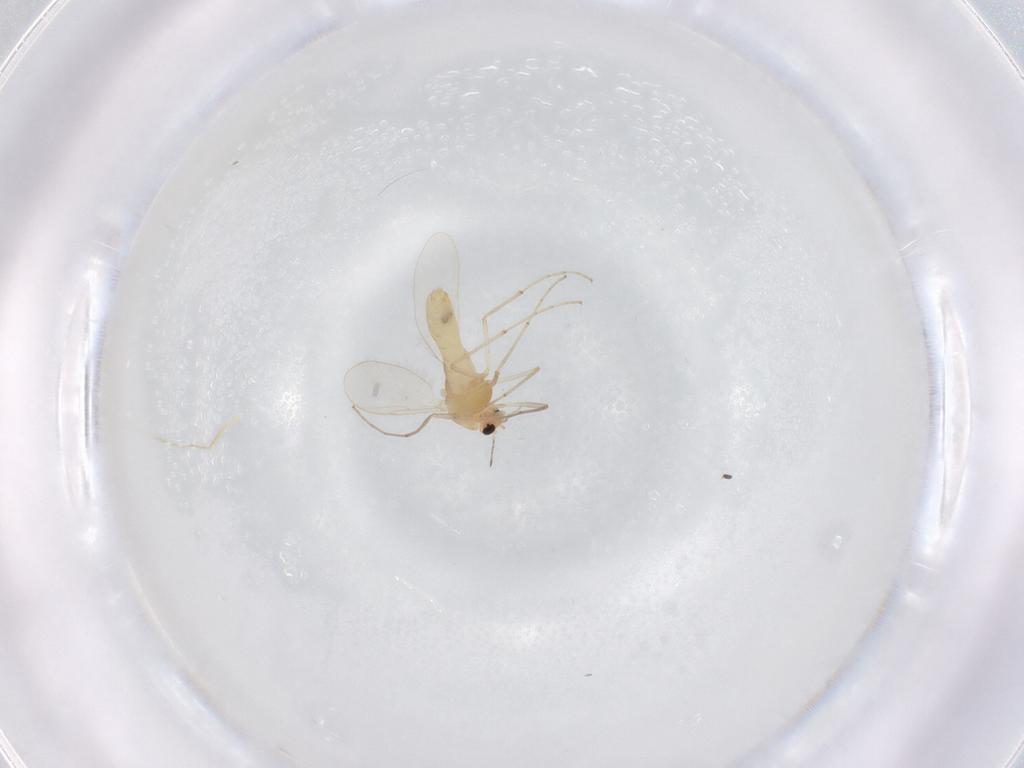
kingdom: Animalia
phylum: Arthropoda
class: Insecta
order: Diptera
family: Chironomidae
